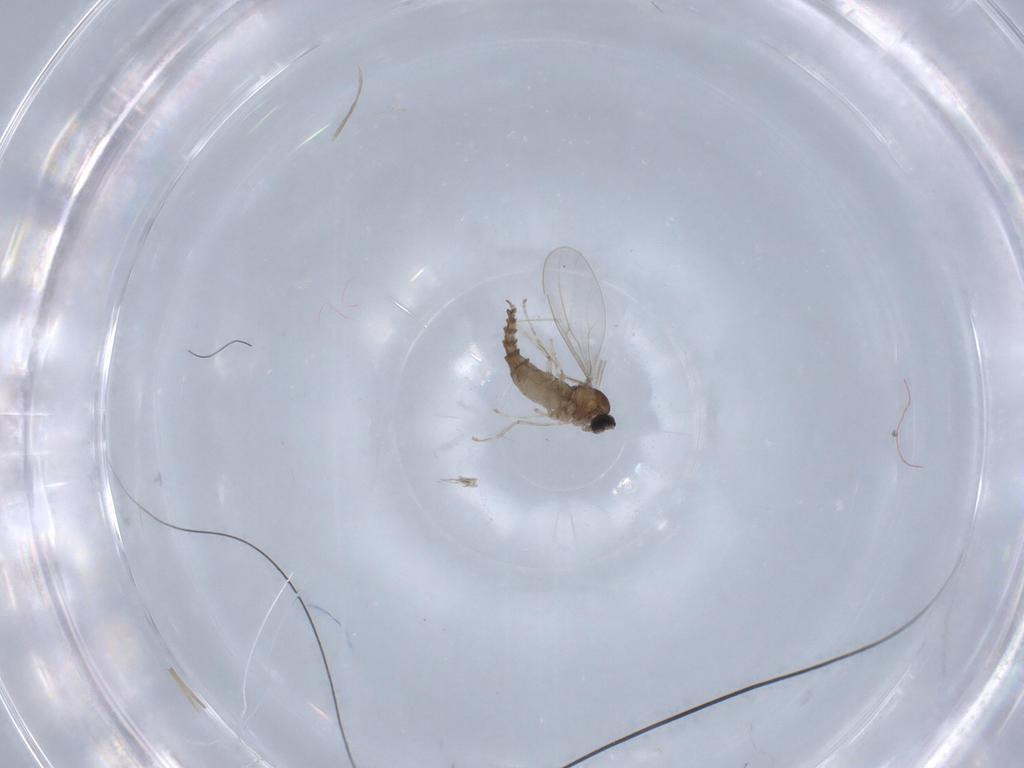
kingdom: Animalia
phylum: Arthropoda
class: Insecta
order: Diptera
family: Cecidomyiidae
